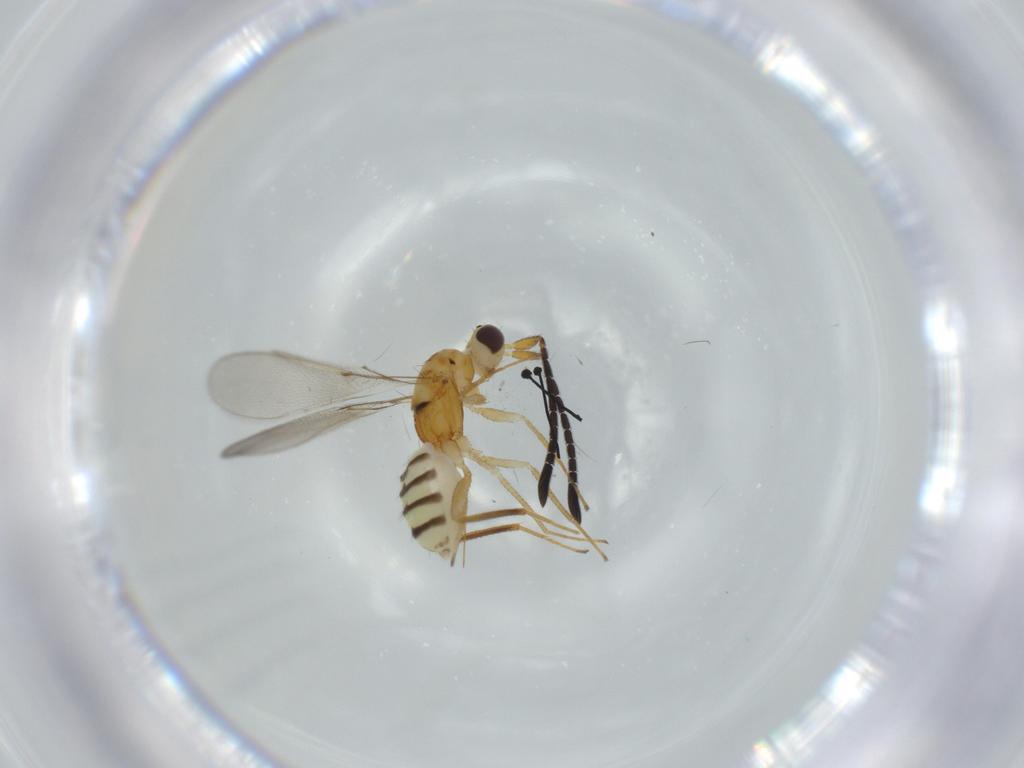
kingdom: Animalia
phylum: Arthropoda
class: Insecta
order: Hymenoptera
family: Mymaridae
